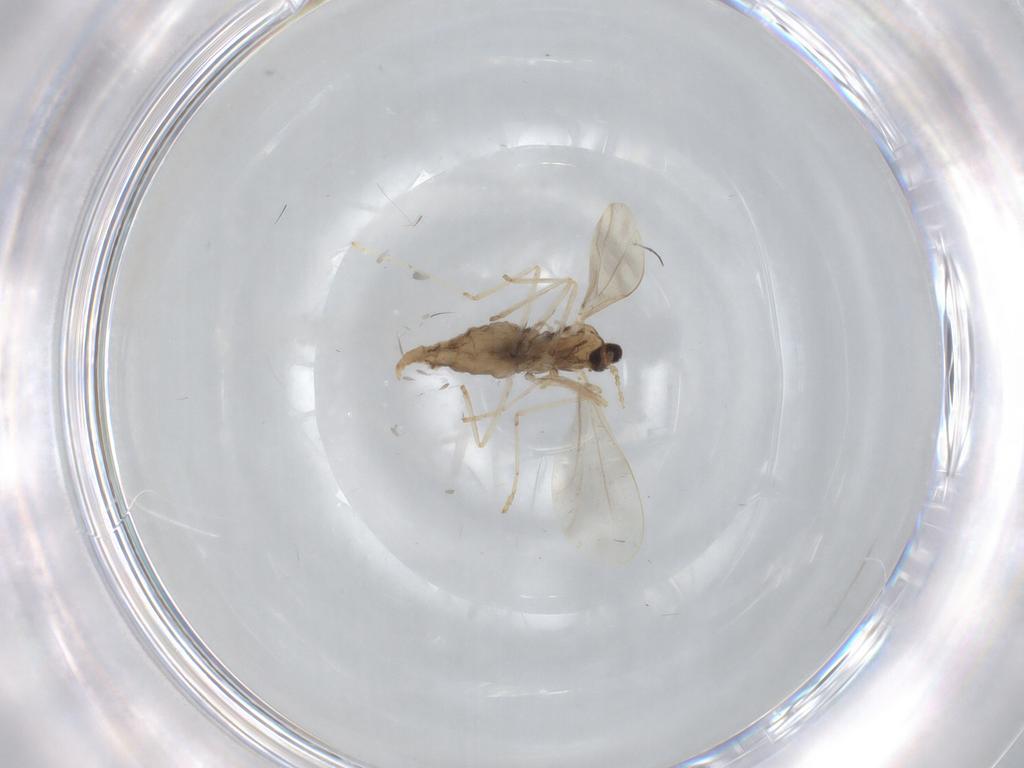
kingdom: Animalia
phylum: Arthropoda
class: Insecta
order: Diptera
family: Cecidomyiidae
